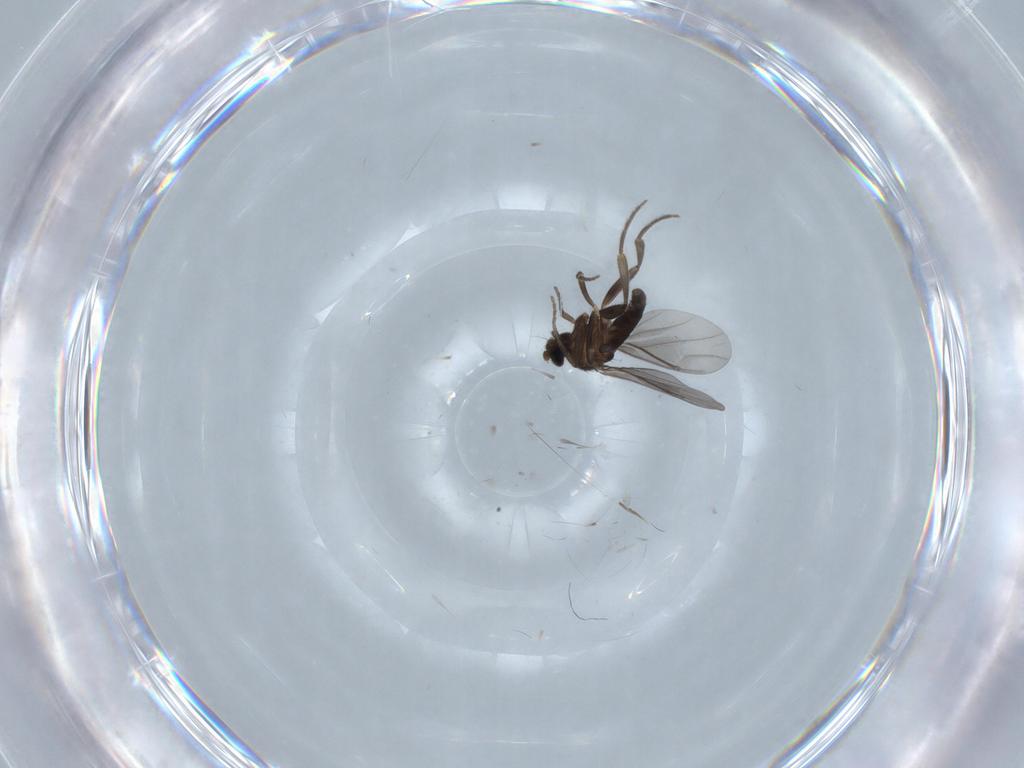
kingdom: Animalia
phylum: Arthropoda
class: Insecta
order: Diptera
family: Phoridae
